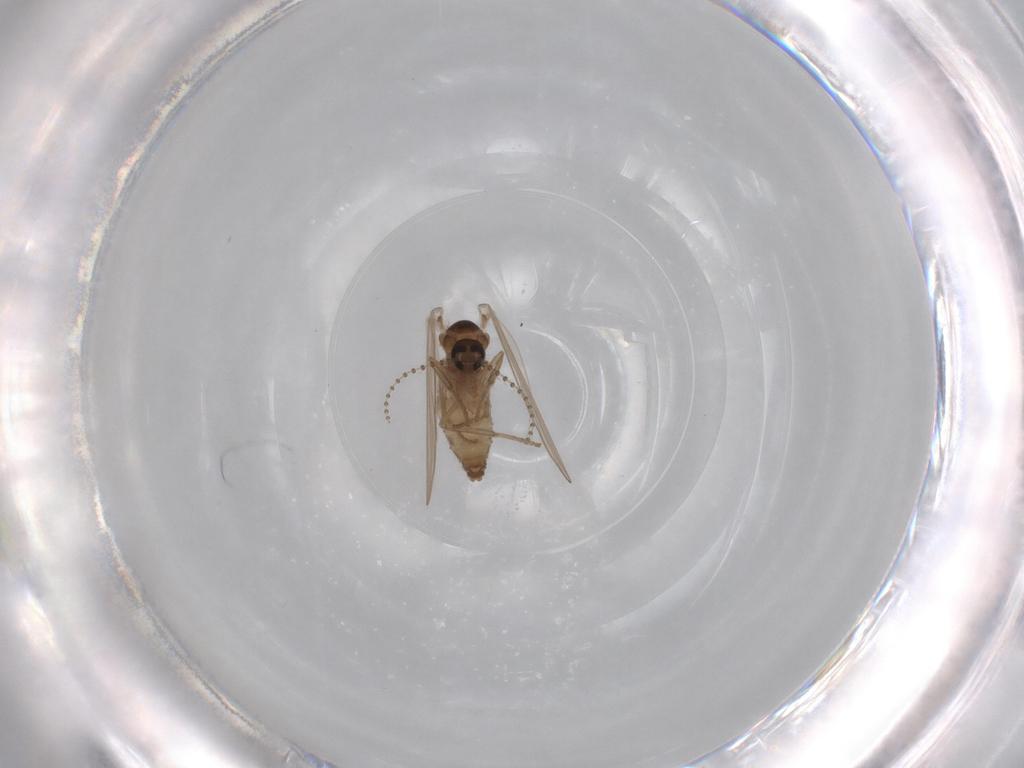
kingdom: Animalia
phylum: Arthropoda
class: Insecta
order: Diptera
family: Psychodidae
